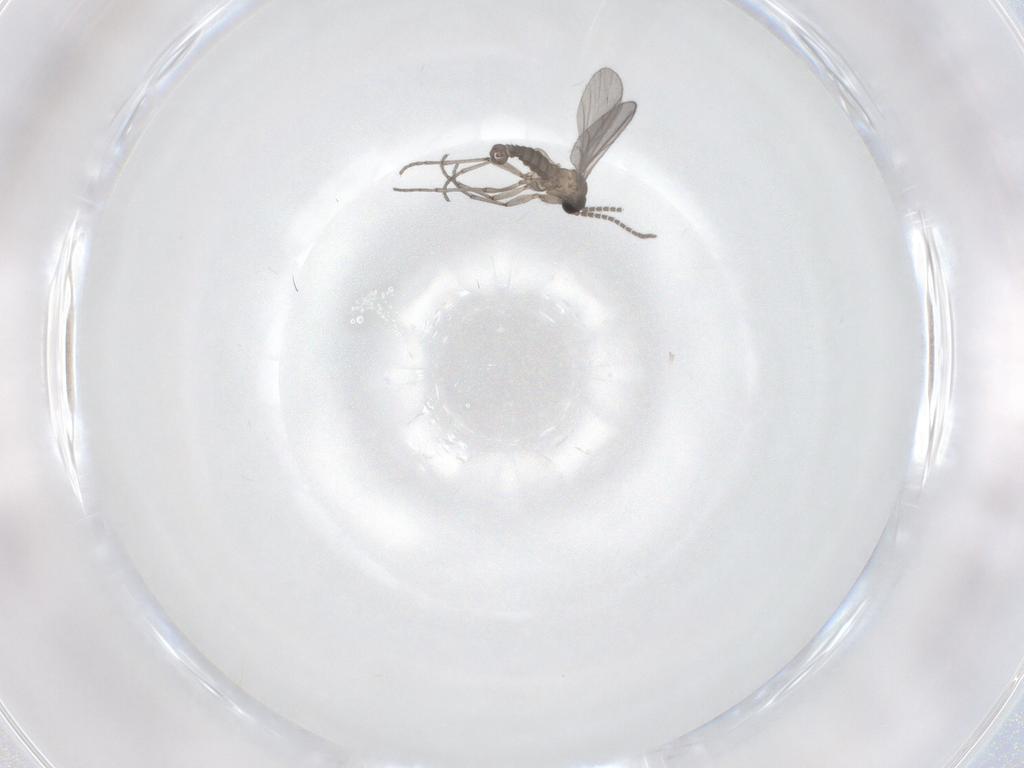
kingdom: Animalia
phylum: Arthropoda
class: Insecta
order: Diptera
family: Sciaridae
